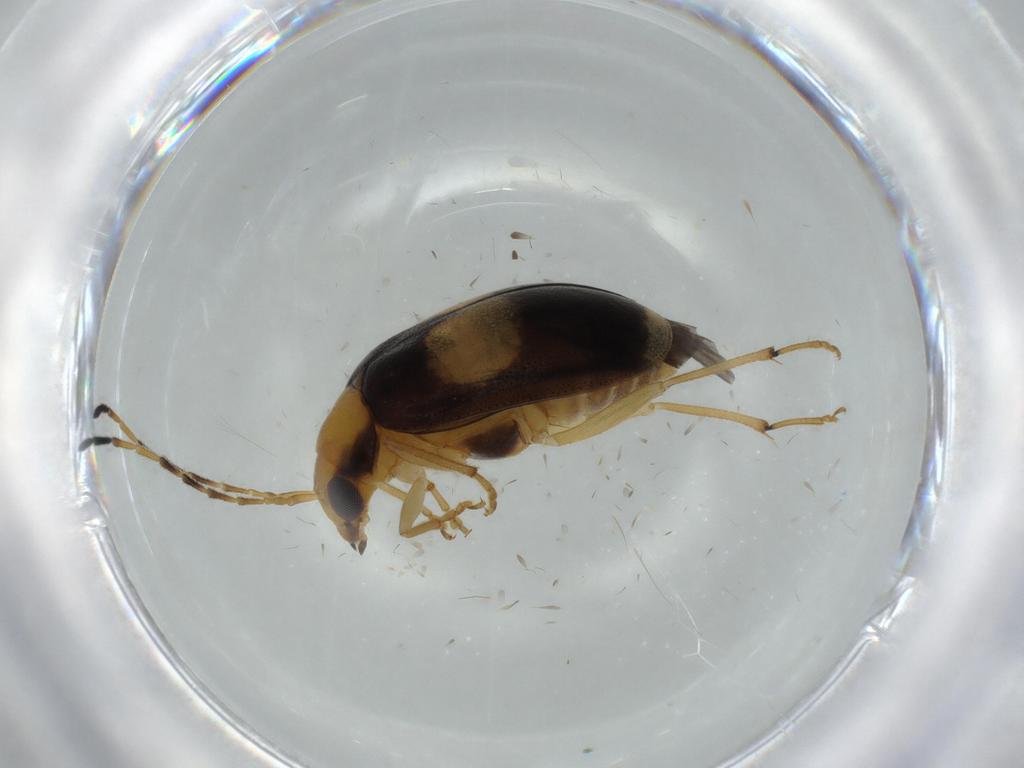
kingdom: Animalia
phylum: Arthropoda
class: Insecta
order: Coleoptera
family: Chrysomelidae
